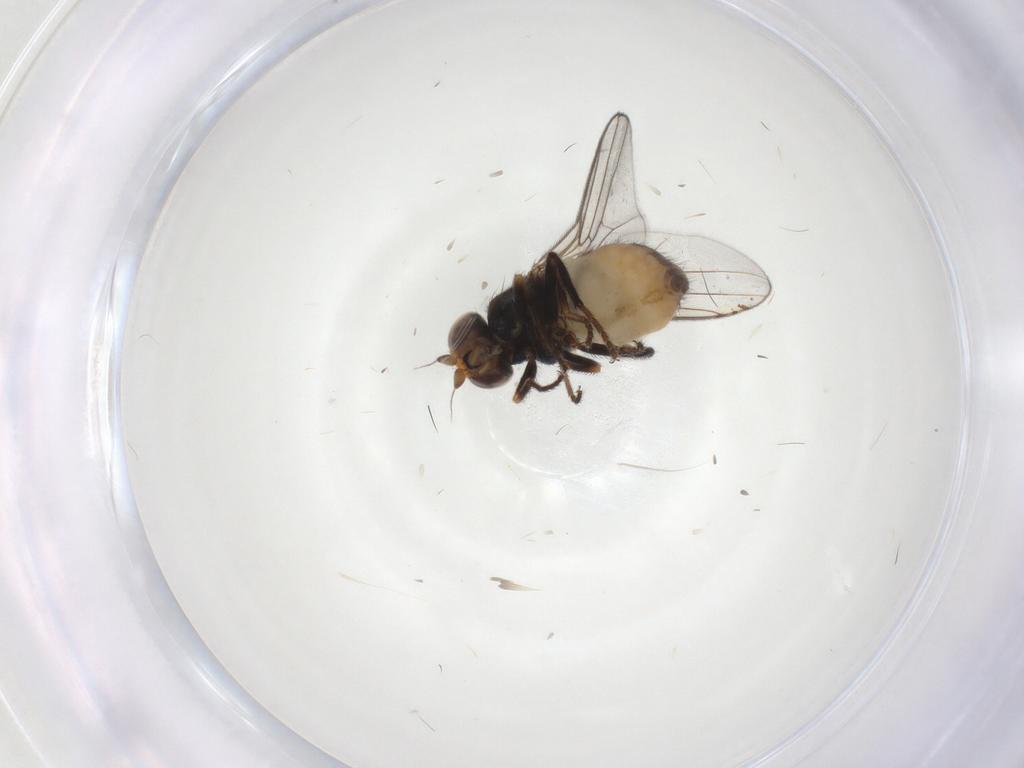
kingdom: Animalia
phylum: Arthropoda
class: Insecta
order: Diptera
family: Chloropidae
